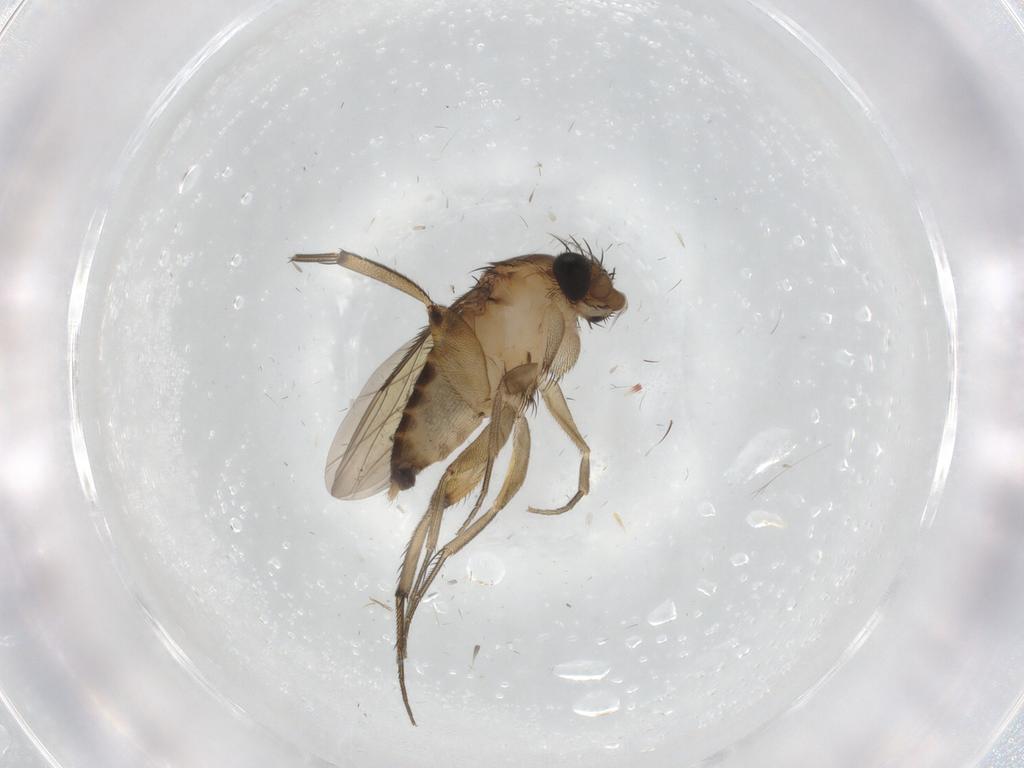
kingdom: Animalia
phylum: Arthropoda
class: Insecta
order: Diptera
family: Phoridae
